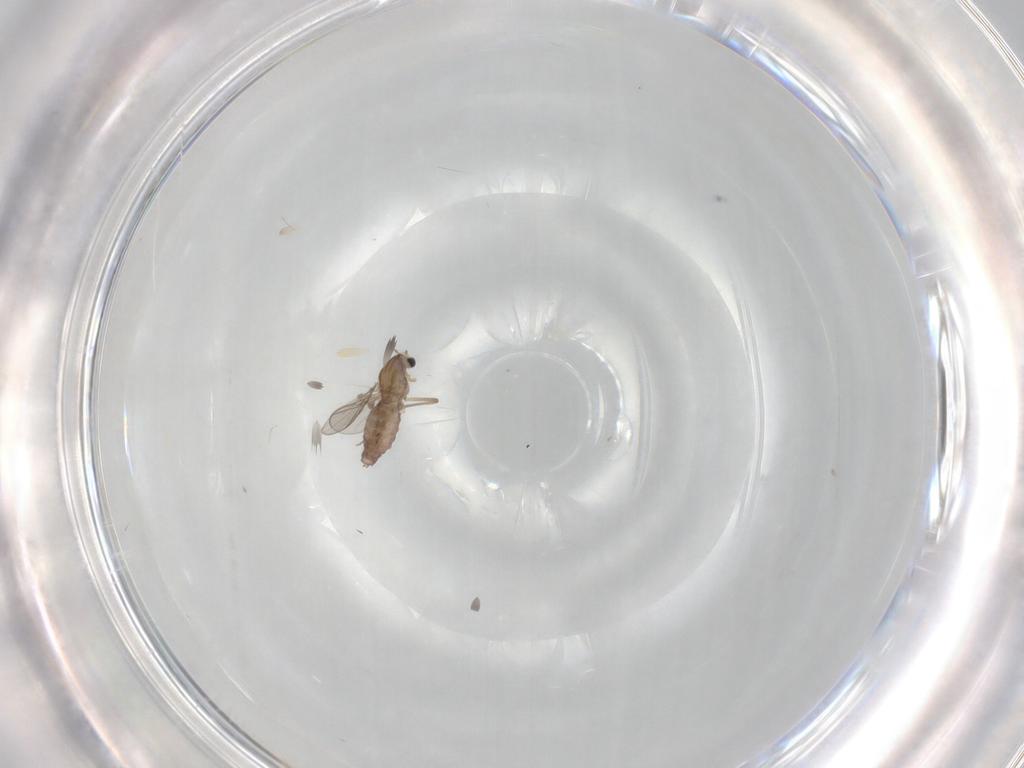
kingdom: Animalia
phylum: Arthropoda
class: Insecta
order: Diptera
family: Chironomidae
